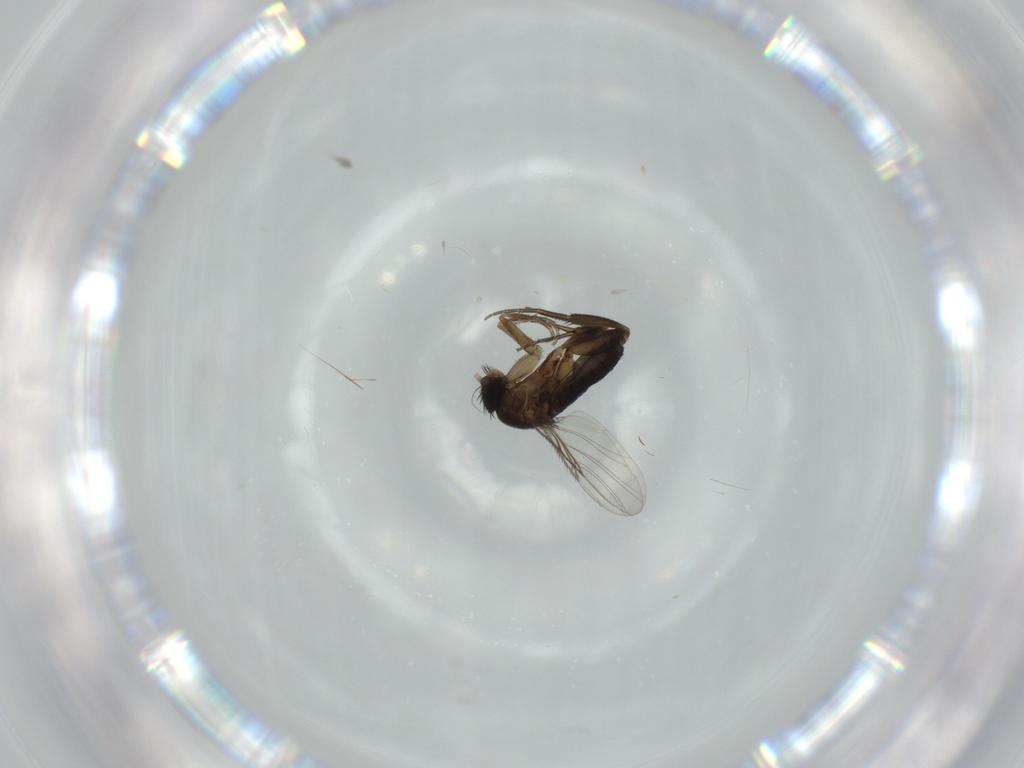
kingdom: Animalia
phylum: Arthropoda
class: Insecta
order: Diptera
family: Phoridae
